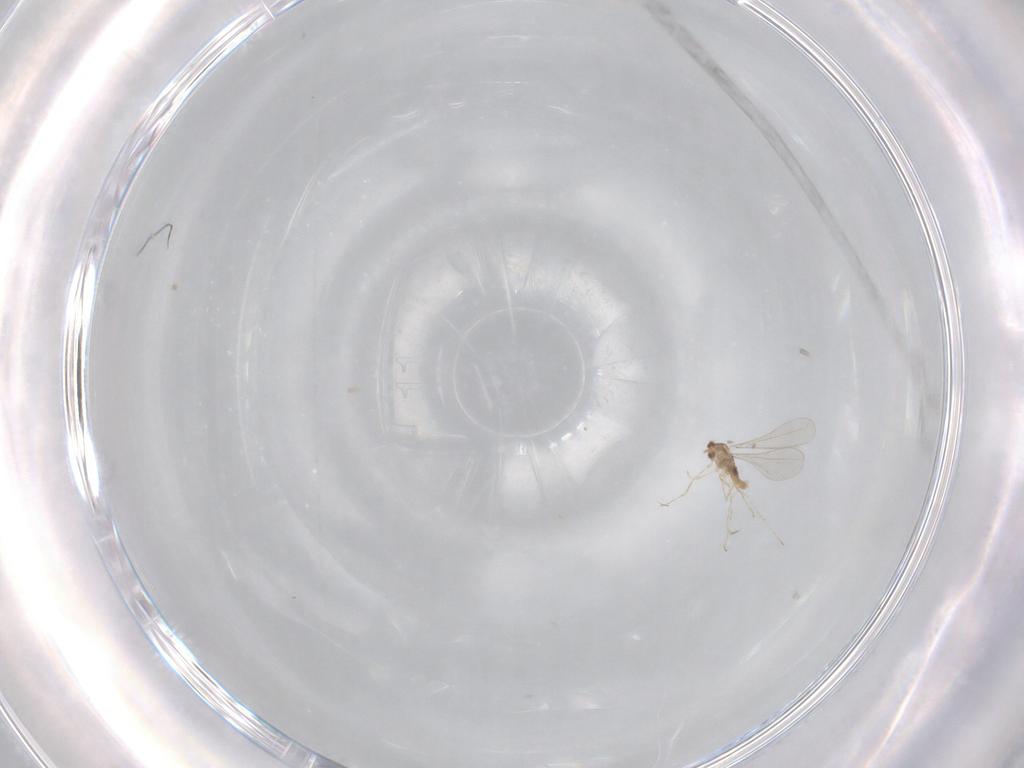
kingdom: Animalia
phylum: Arthropoda
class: Insecta
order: Diptera
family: Cecidomyiidae
